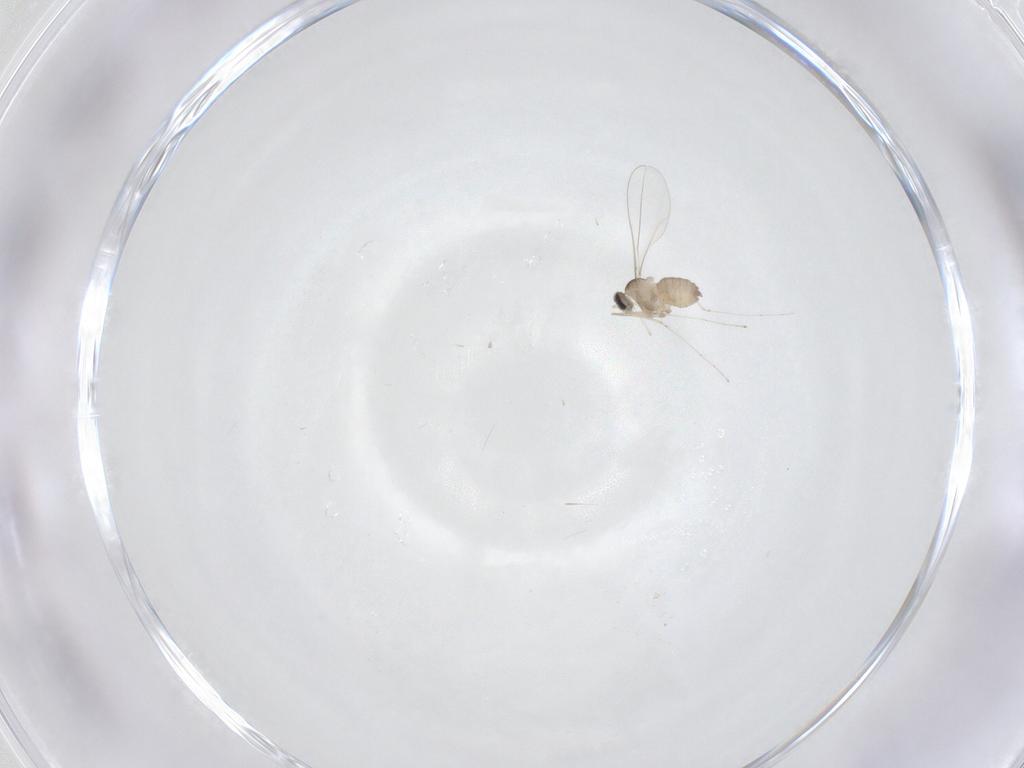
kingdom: Animalia
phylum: Arthropoda
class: Insecta
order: Diptera
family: Cecidomyiidae
